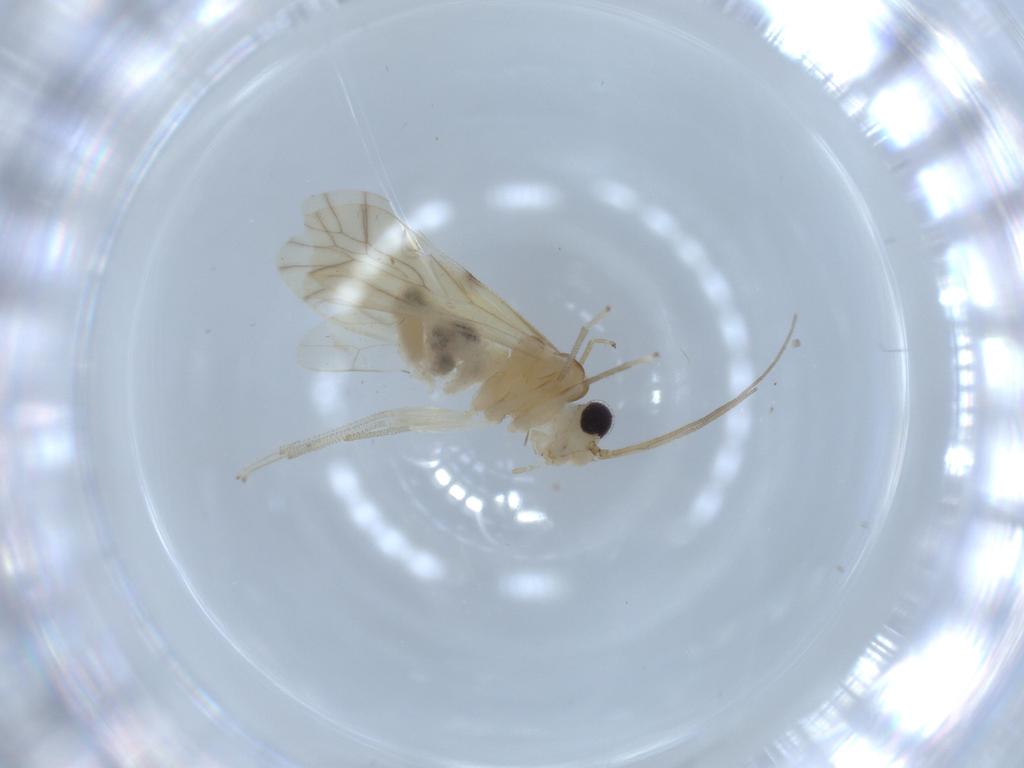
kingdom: Animalia
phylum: Arthropoda
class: Insecta
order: Psocodea
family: Caeciliusidae
